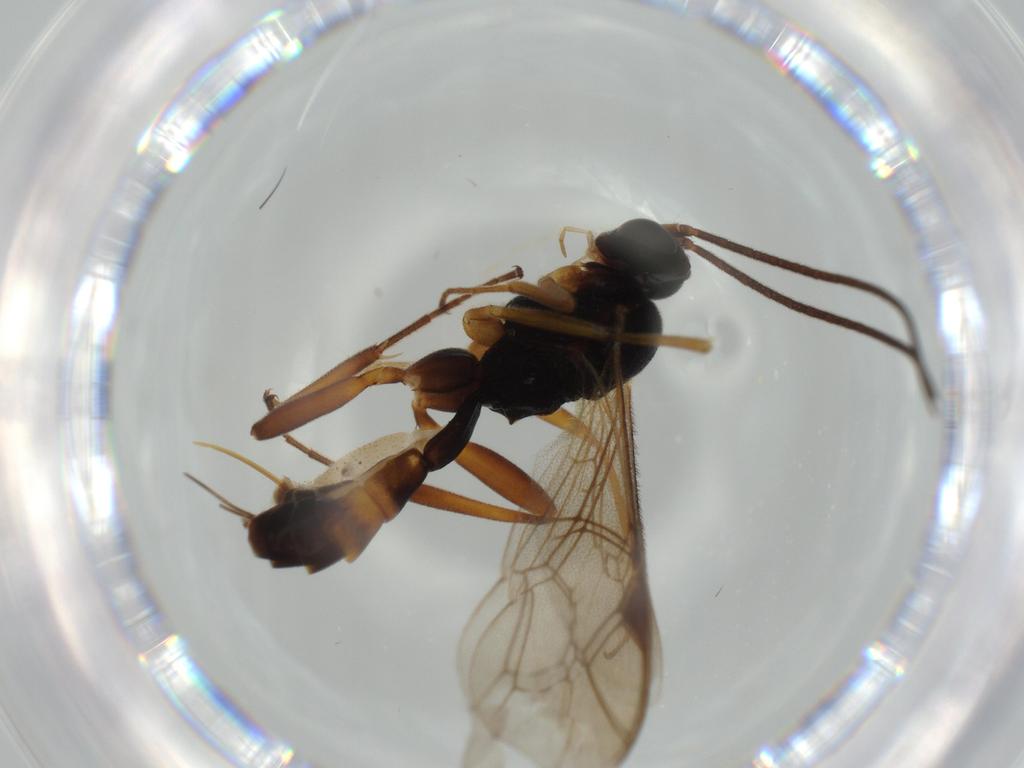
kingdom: Animalia
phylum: Arthropoda
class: Insecta
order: Hymenoptera
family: Ichneumonidae
